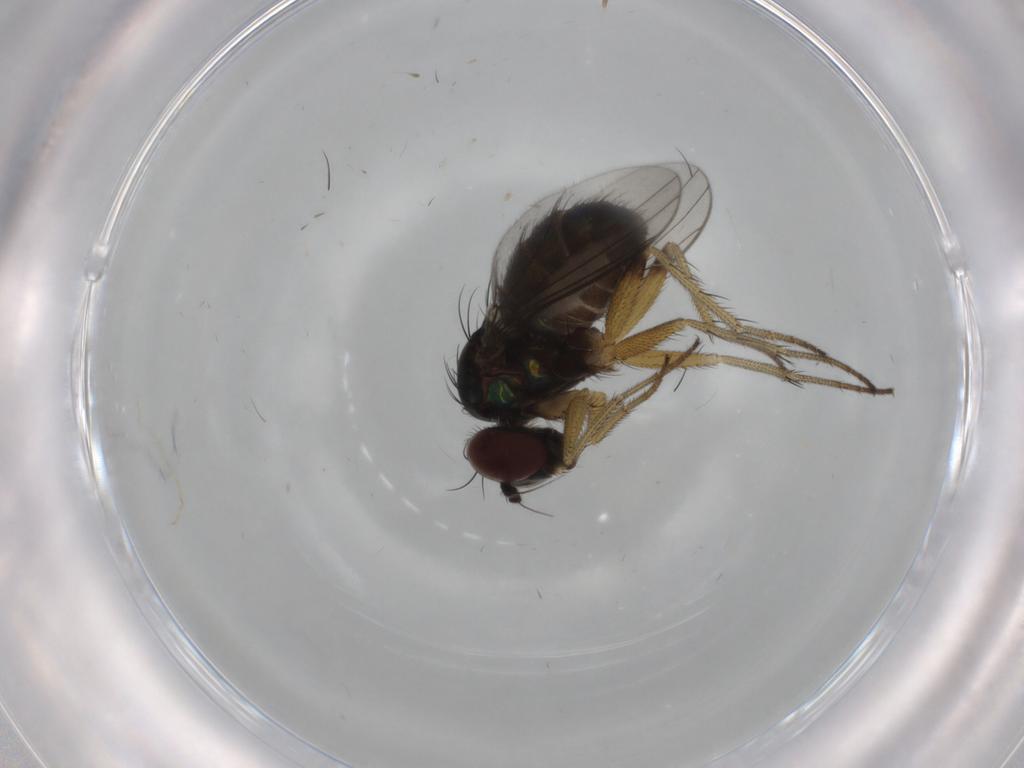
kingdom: Animalia
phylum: Arthropoda
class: Insecta
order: Diptera
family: Dolichopodidae
